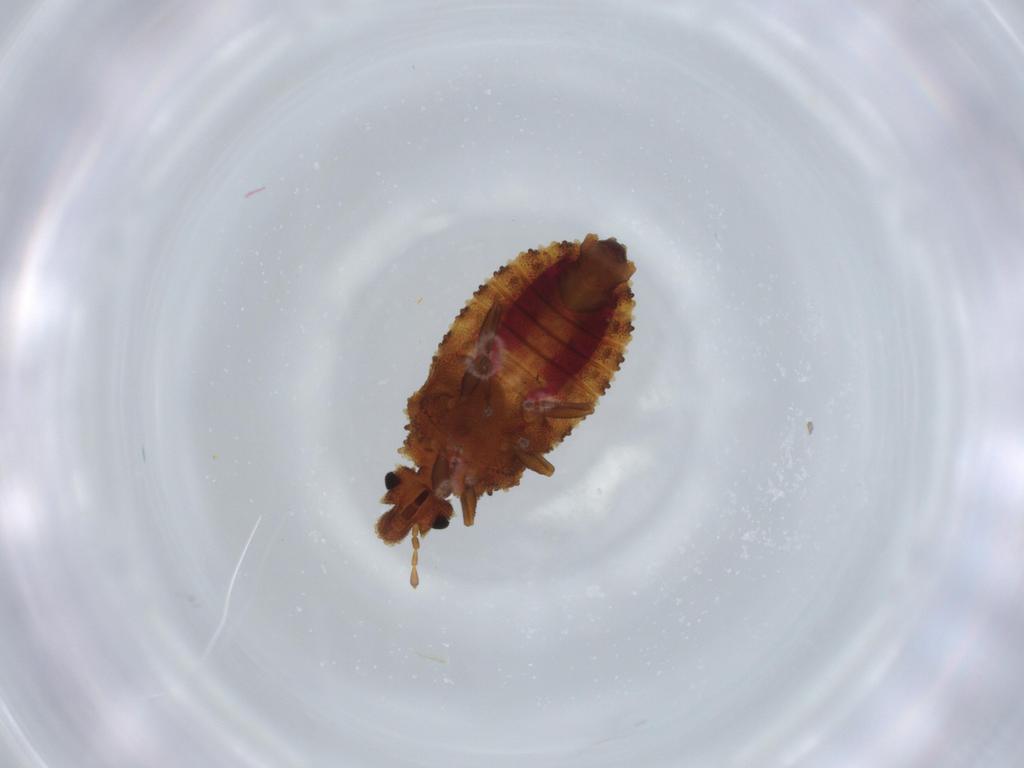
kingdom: Animalia
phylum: Arthropoda
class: Insecta
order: Hemiptera
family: Aradidae
